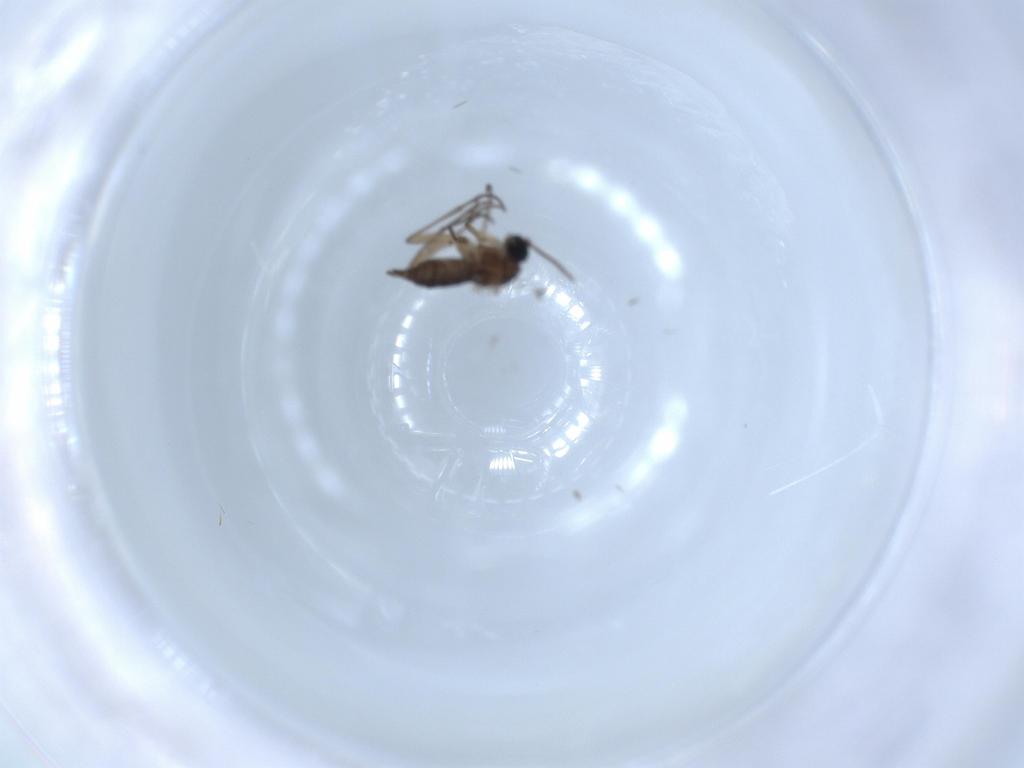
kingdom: Animalia
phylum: Arthropoda
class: Insecta
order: Diptera
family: Sciaridae
